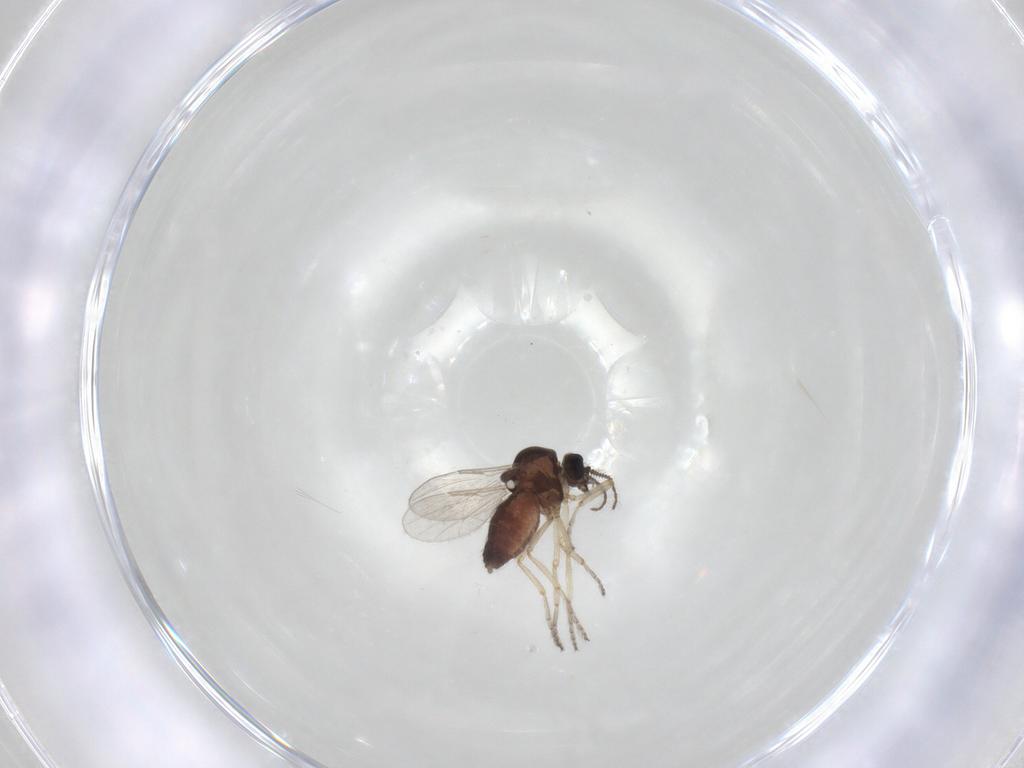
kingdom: Animalia
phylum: Arthropoda
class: Insecta
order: Diptera
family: Ceratopogonidae
